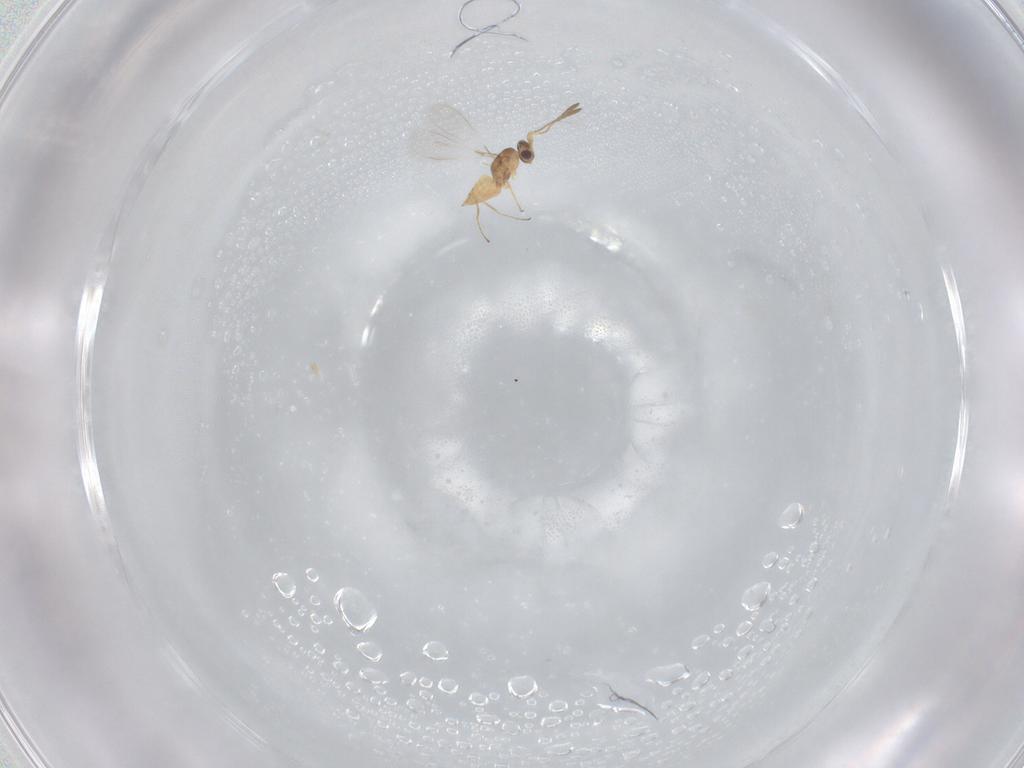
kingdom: Animalia
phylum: Arthropoda
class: Insecta
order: Hymenoptera
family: Formicidae
